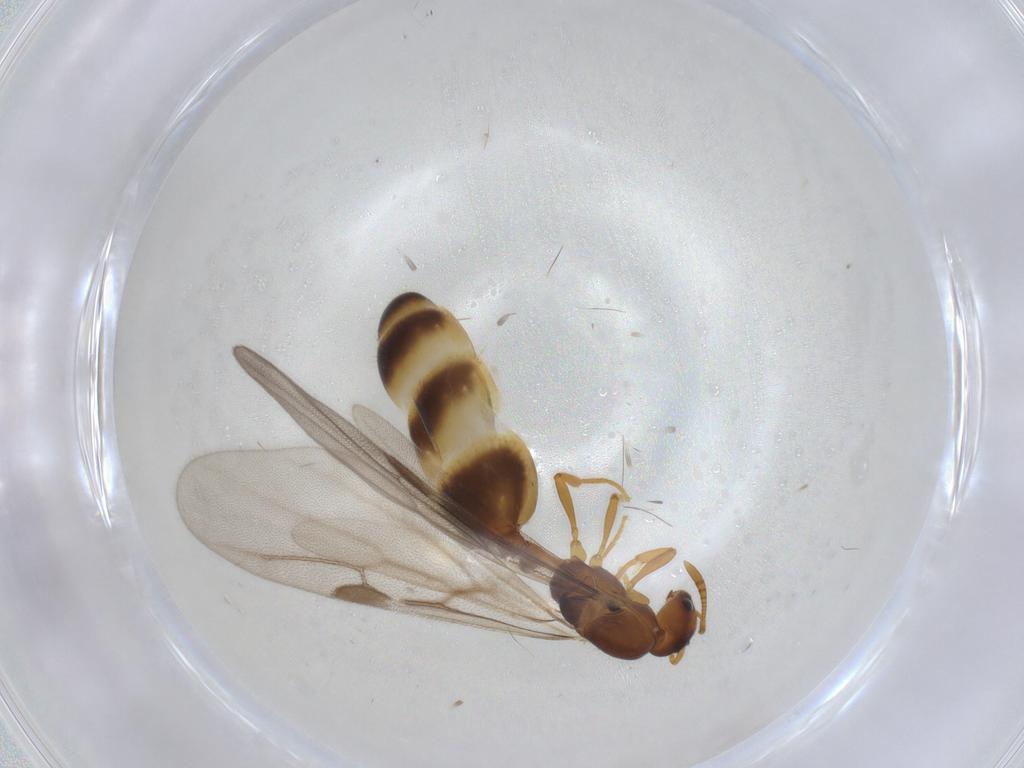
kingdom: Animalia
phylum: Arthropoda
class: Insecta
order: Hymenoptera
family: Formicidae
